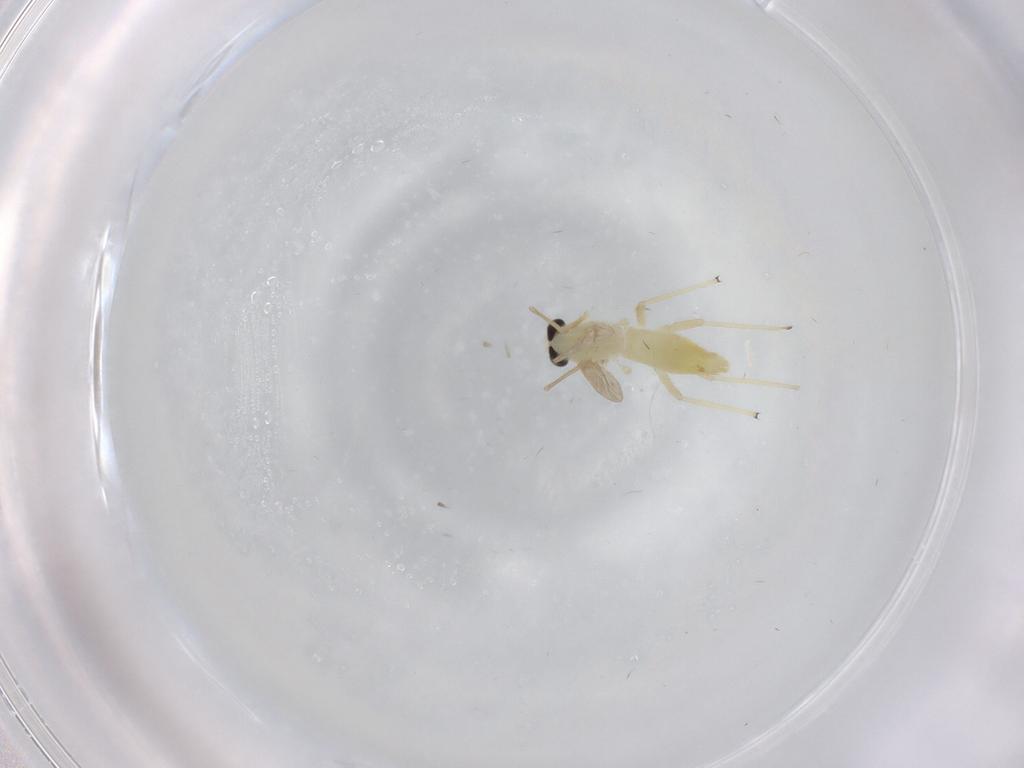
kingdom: Animalia
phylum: Arthropoda
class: Insecta
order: Diptera
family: Chironomidae
